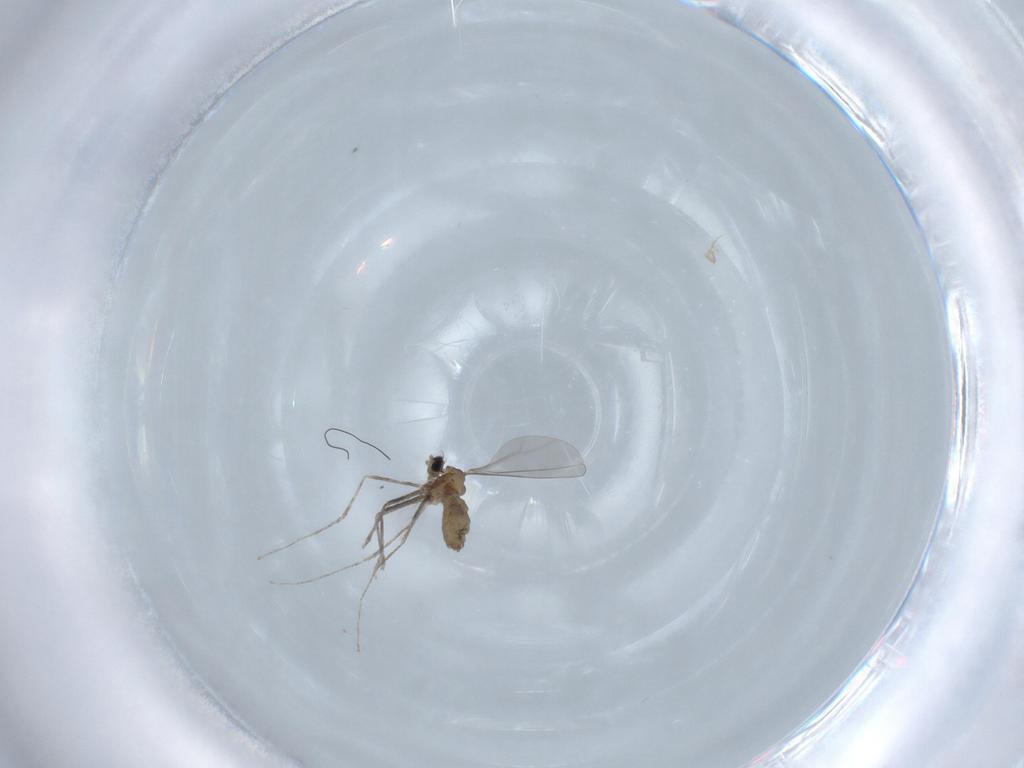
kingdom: Animalia
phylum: Arthropoda
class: Insecta
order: Diptera
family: Cecidomyiidae
